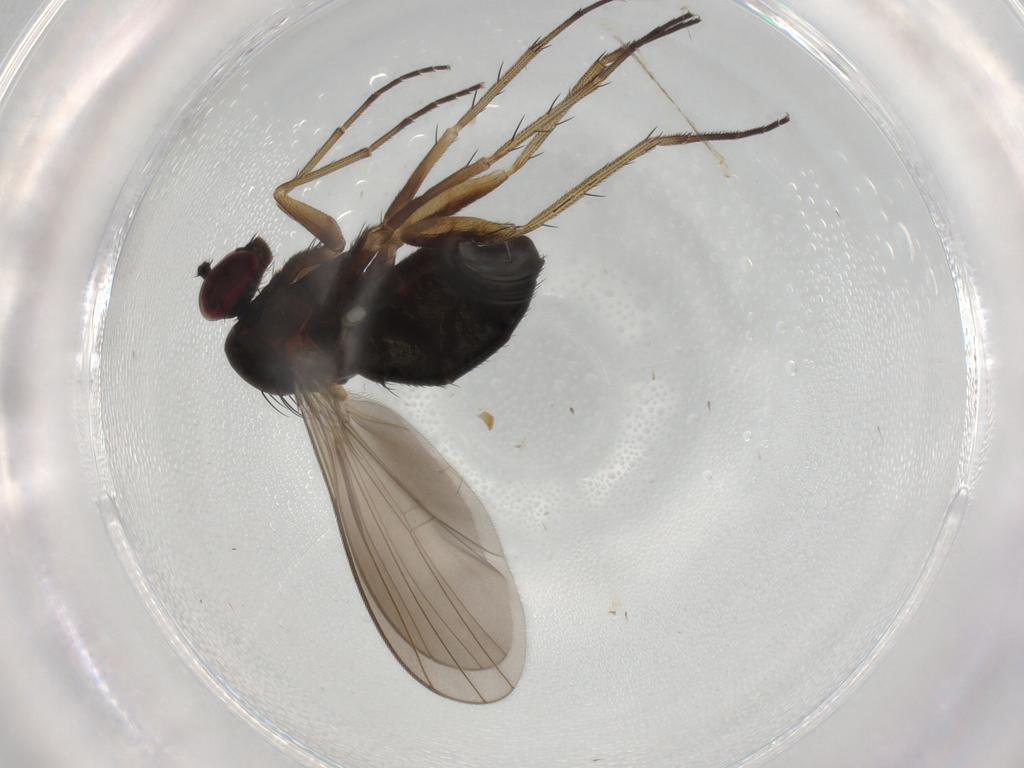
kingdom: Animalia
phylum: Arthropoda
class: Insecta
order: Diptera
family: Dolichopodidae
